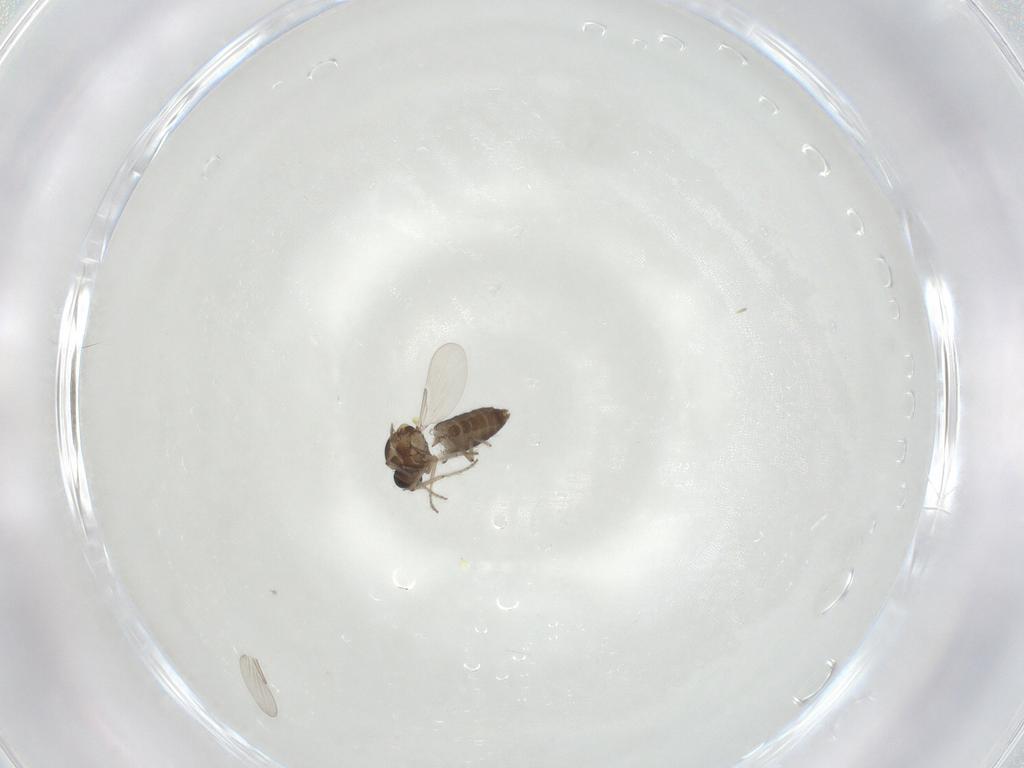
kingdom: Animalia
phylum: Arthropoda
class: Insecta
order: Diptera
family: Ceratopogonidae
